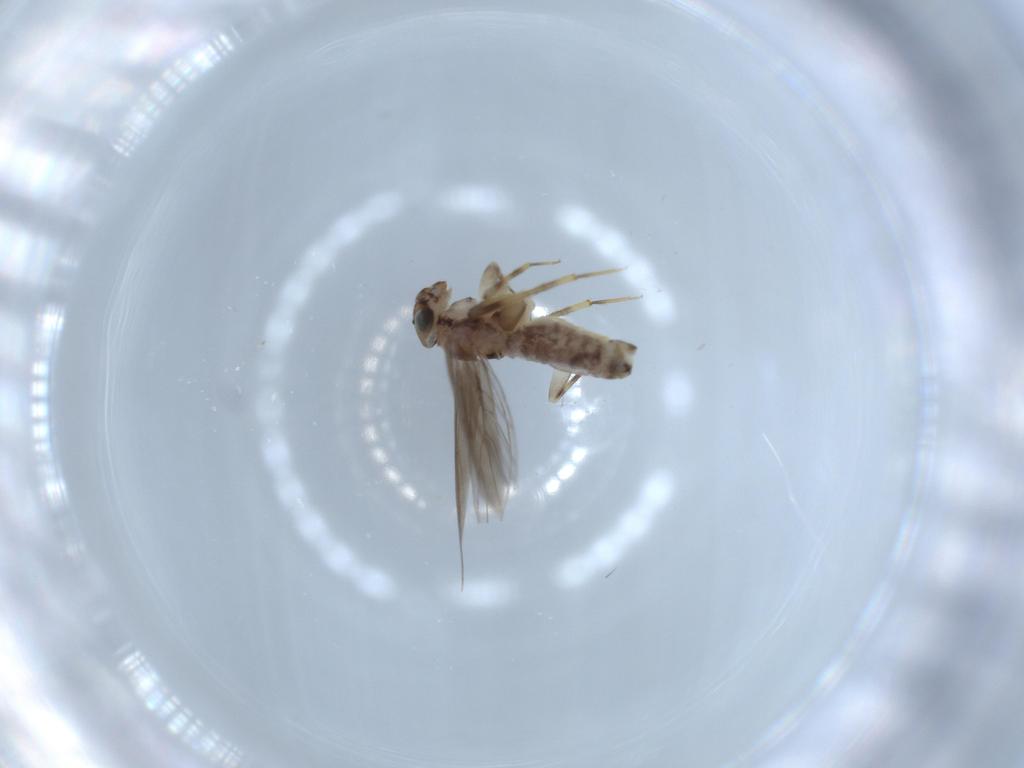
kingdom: Animalia
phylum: Arthropoda
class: Insecta
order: Psocodea
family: Lepidopsocidae
